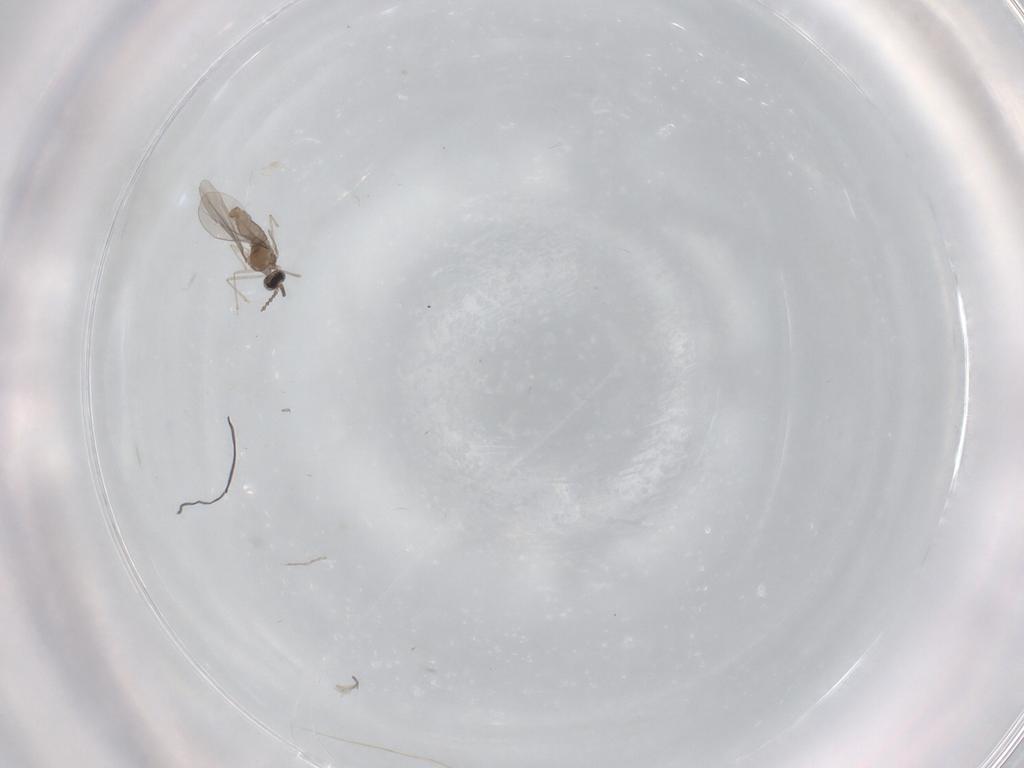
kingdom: Animalia
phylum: Arthropoda
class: Insecta
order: Diptera
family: Cecidomyiidae
